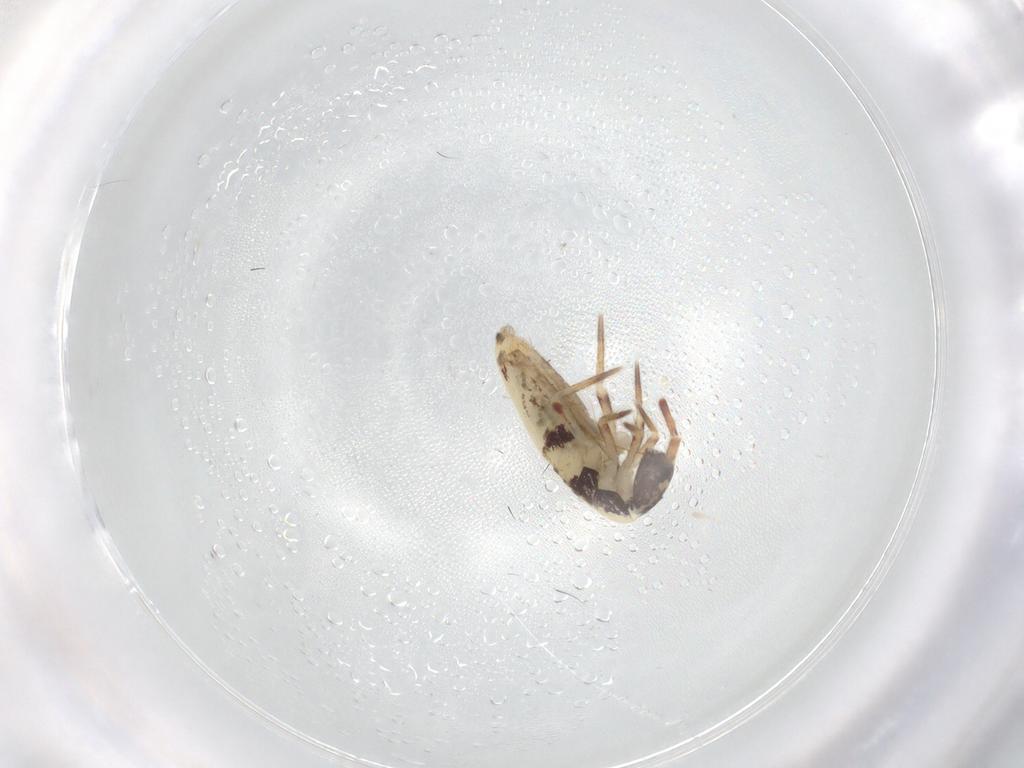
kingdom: Animalia
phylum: Arthropoda
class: Collembola
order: Entomobryomorpha
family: Entomobryidae
